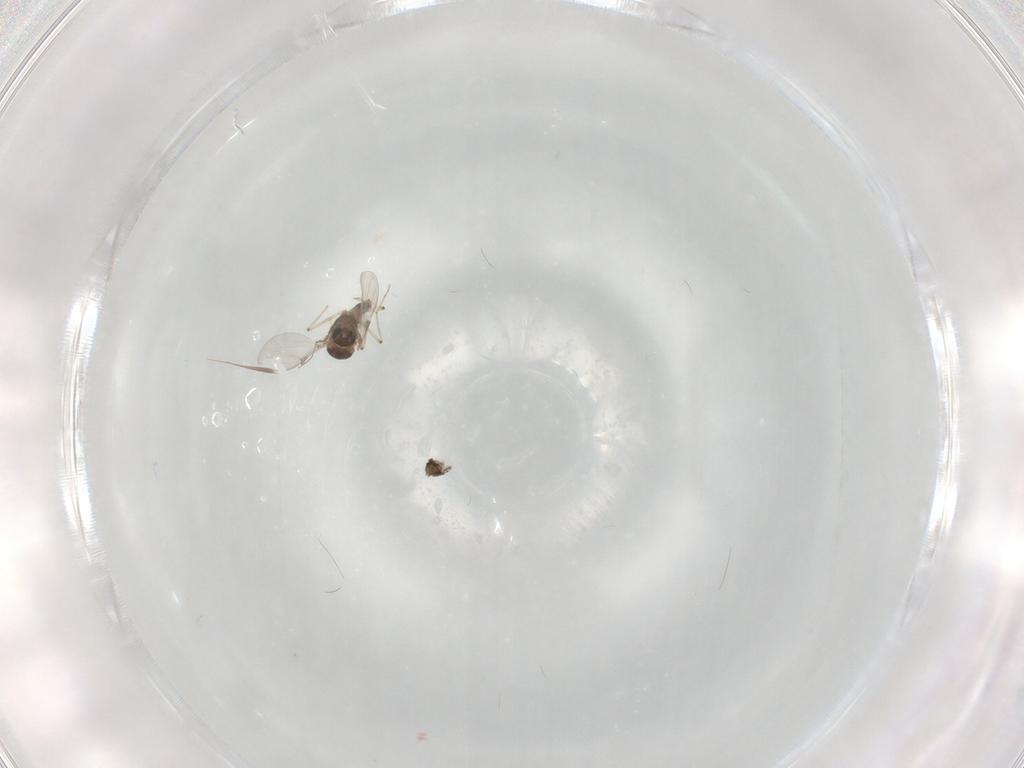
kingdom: Animalia
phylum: Arthropoda
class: Insecta
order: Diptera
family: Chironomidae
